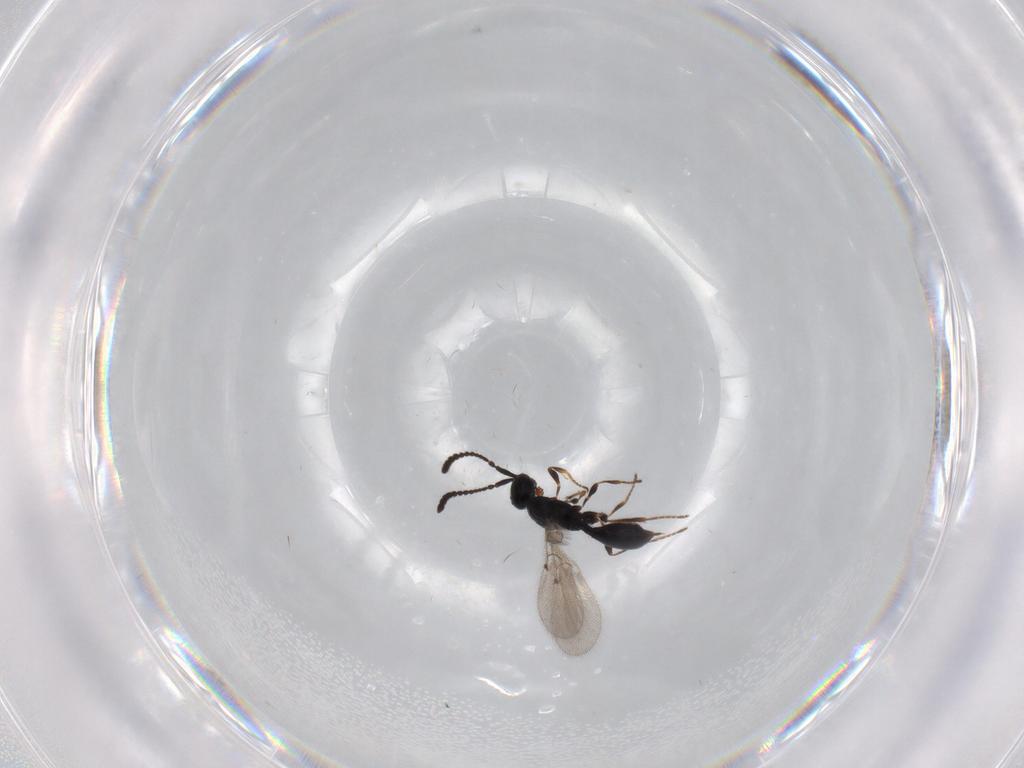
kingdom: Animalia
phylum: Arthropoda
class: Insecta
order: Hymenoptera
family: Diapriidae
